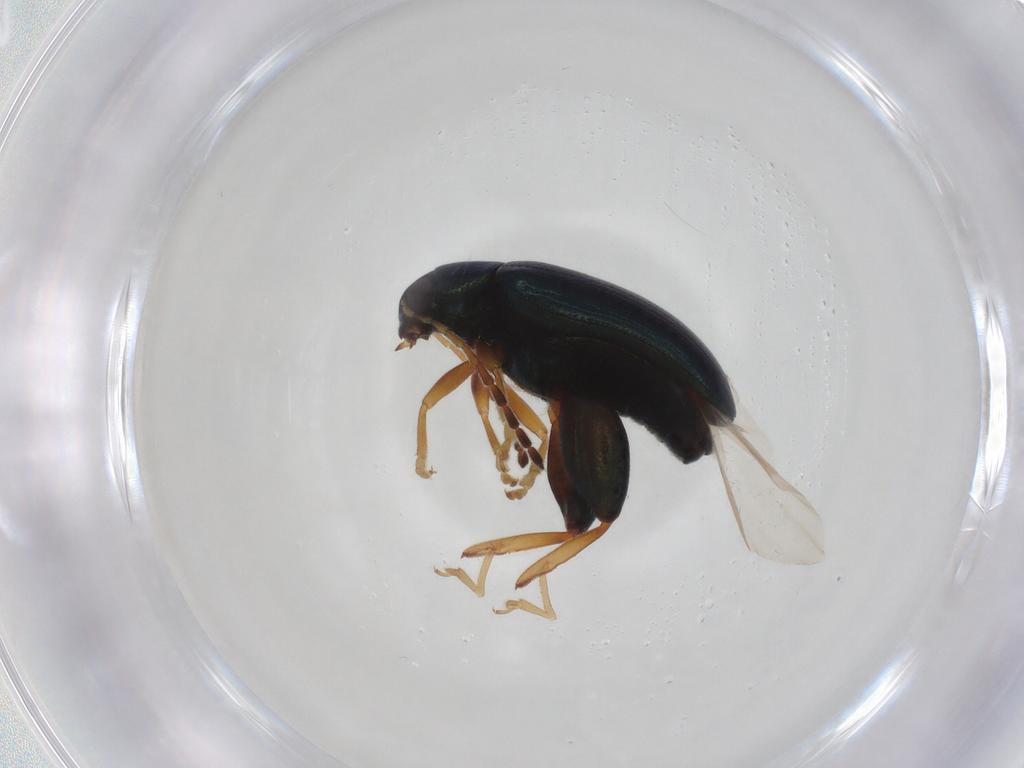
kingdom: Animalia
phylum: Arthropoda
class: Insecta
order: Coleoptera
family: Chrysomelidae
